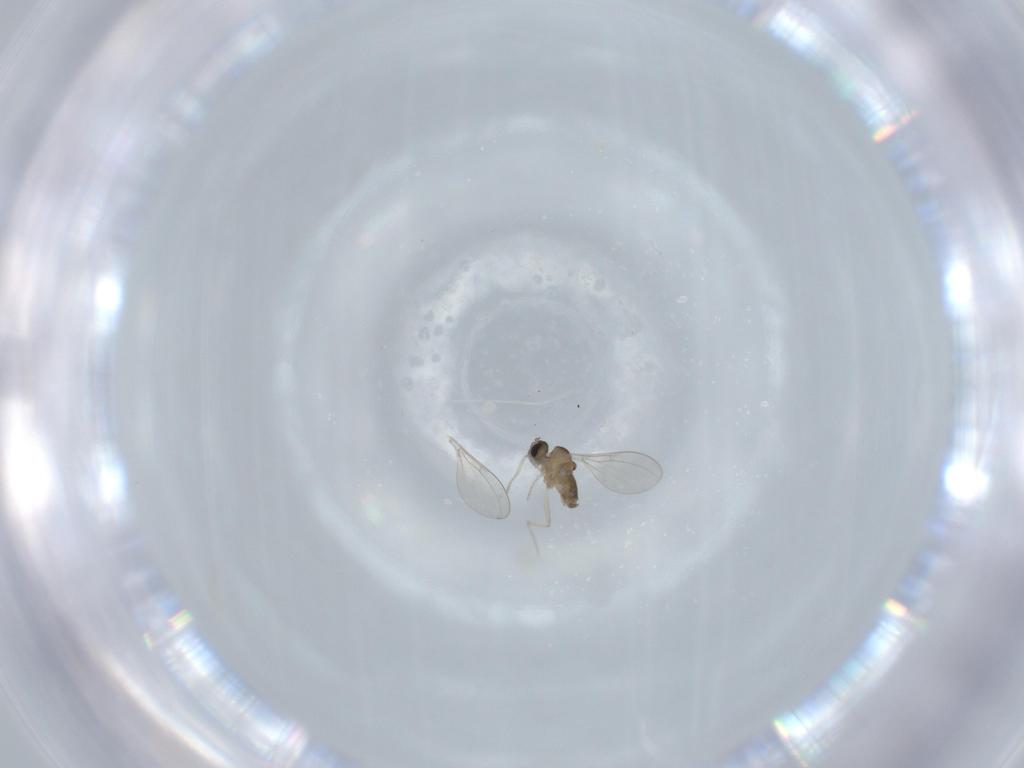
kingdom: Animalia
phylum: Arthropoda
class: Insecta
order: Diptera
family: Cecidomyiidae
